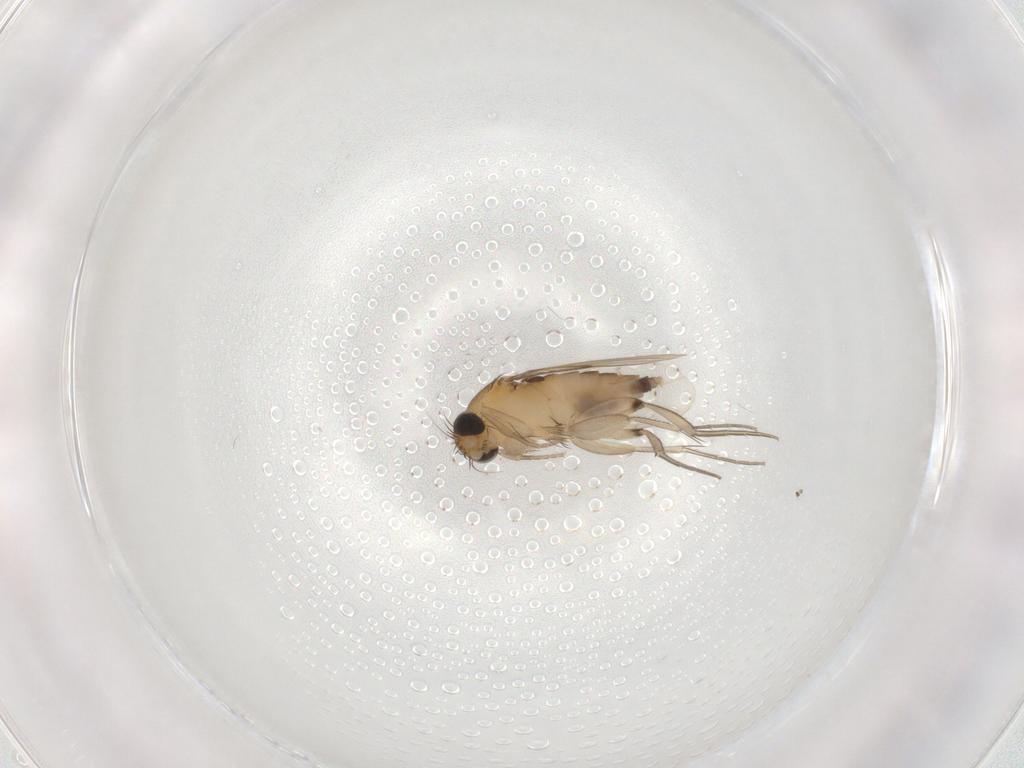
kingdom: Animalia
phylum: Arthropoda
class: Insecta
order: Diptera
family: Phoridae
